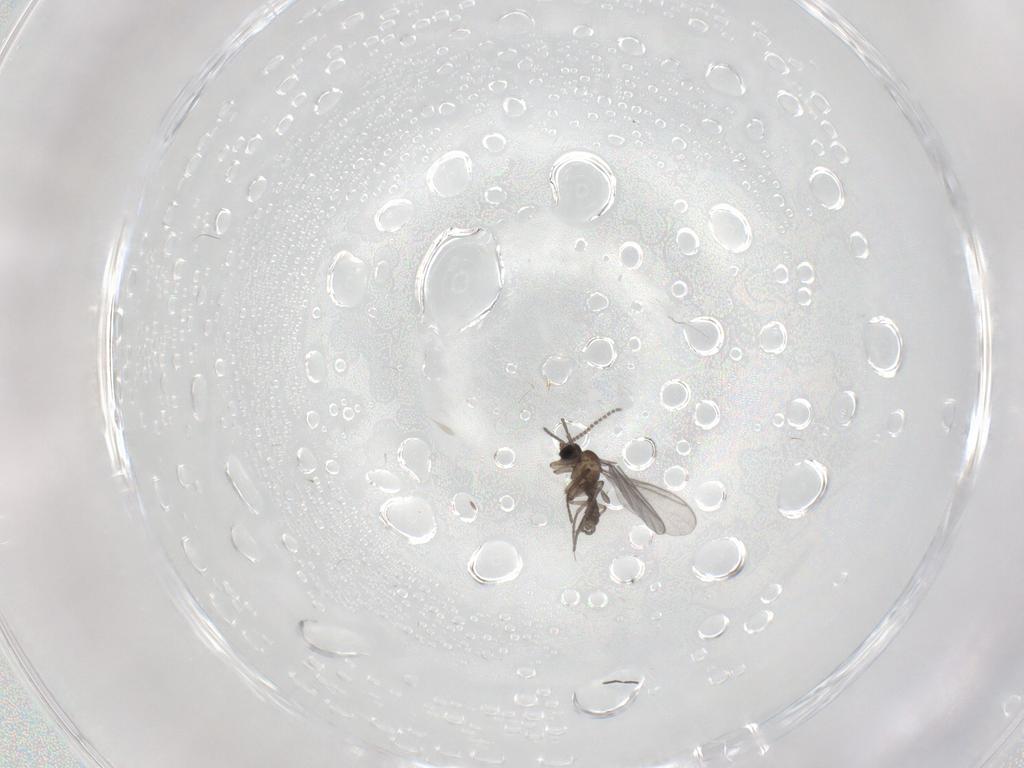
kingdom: Animalia
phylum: Arthropoda
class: Insecta
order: Diptera
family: Sciaridae
